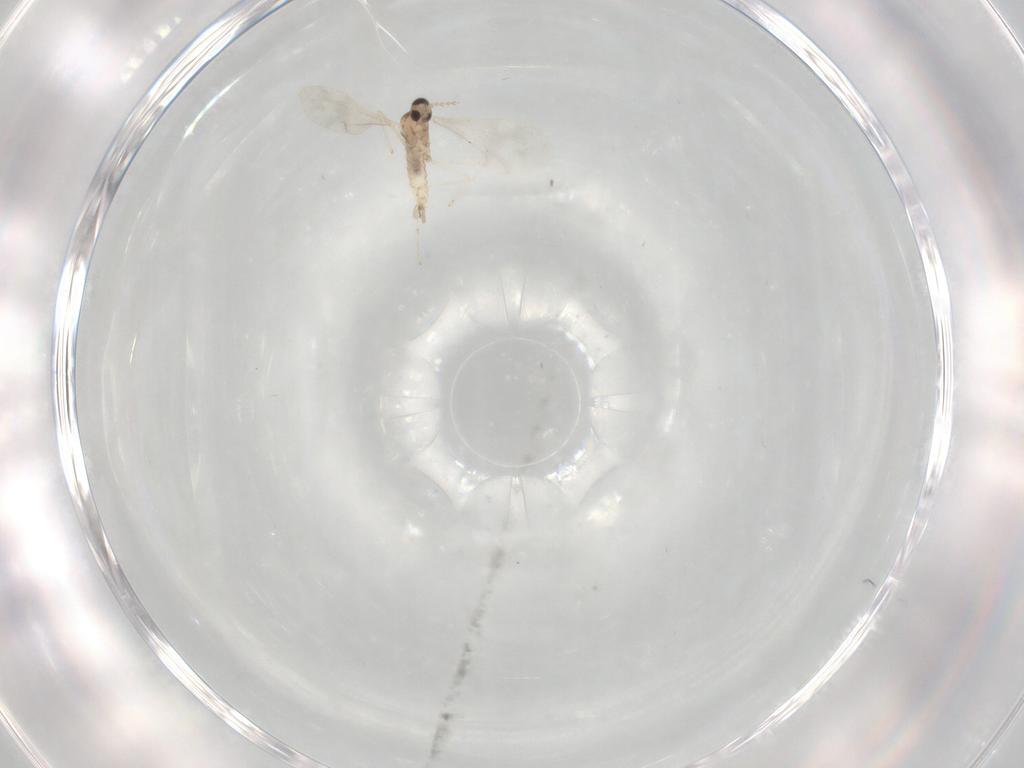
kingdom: Animalia
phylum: Arthropoda
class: Insecta
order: Diptera
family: Cecidomyiidae
